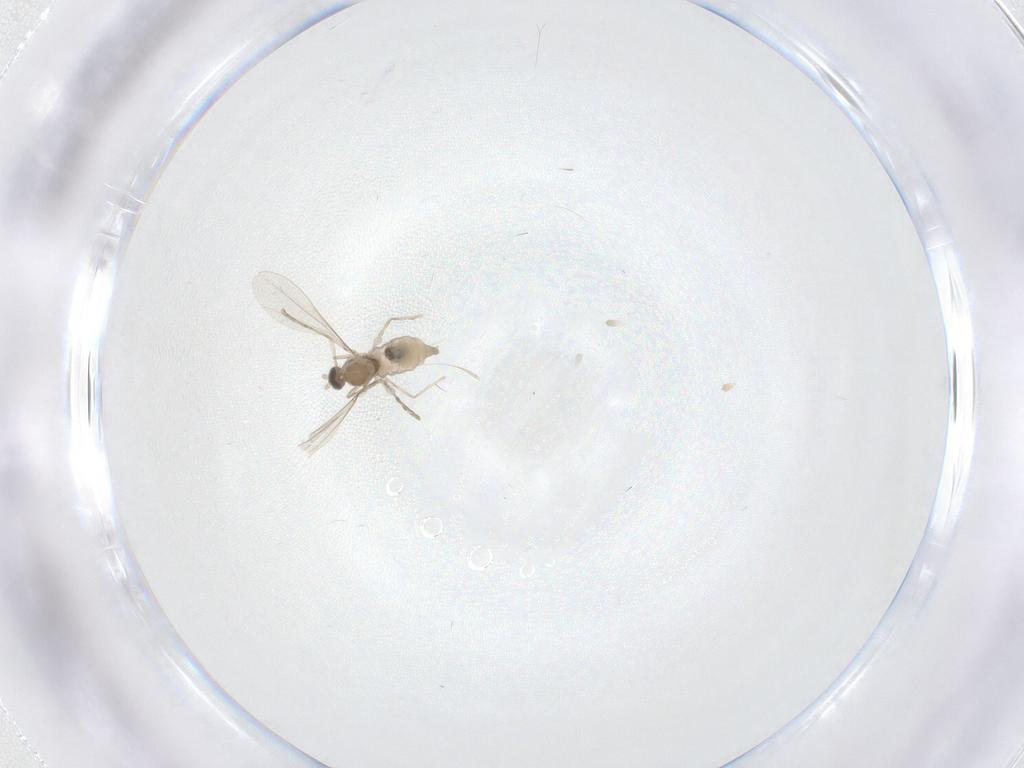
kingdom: Animalia
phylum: Arthropoda
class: Insecta
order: Diptera
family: Cecidomyiidae
